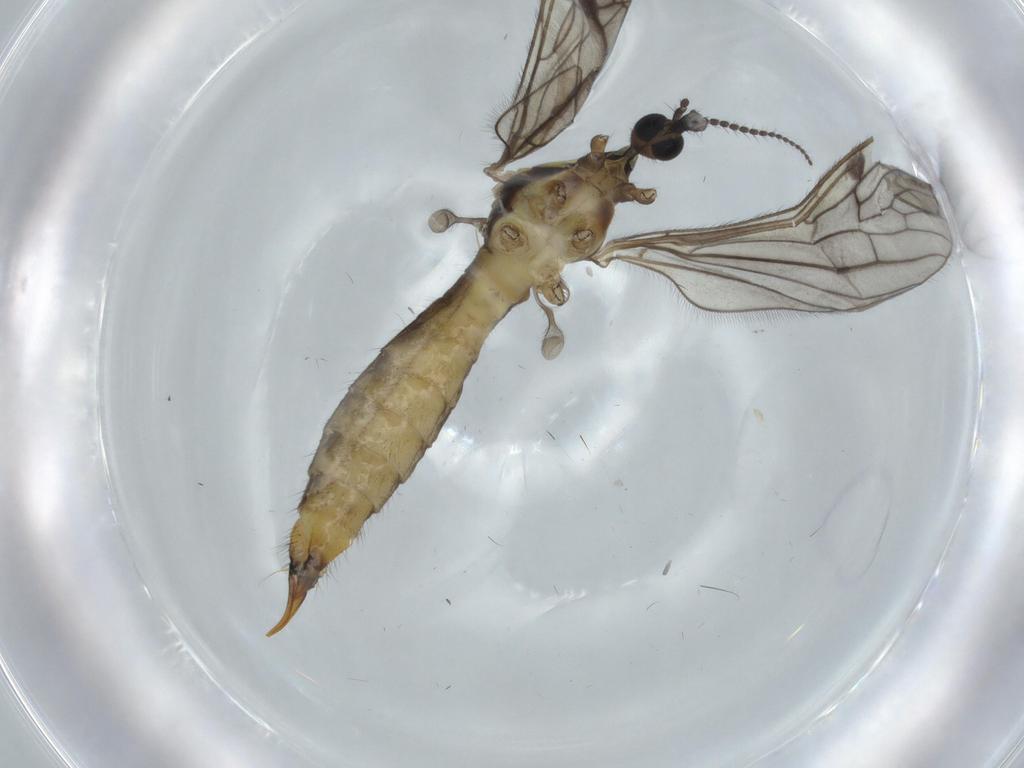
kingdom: Animalia
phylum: Arthropoda
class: Insecta
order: Diptera
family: Limoniidae
